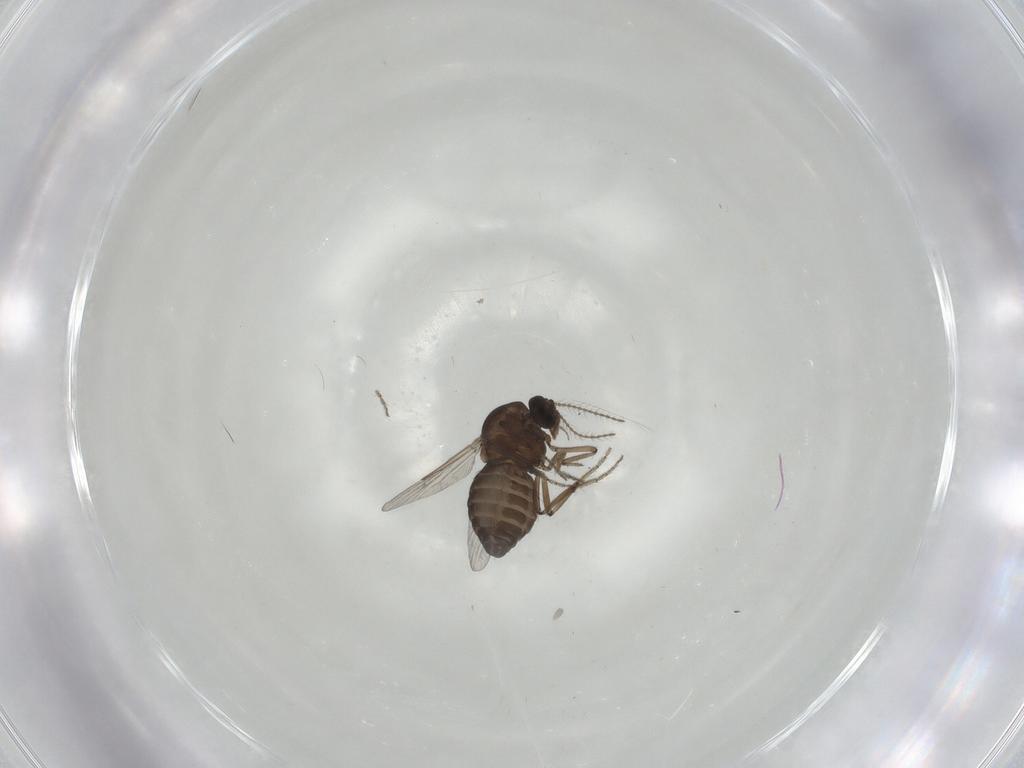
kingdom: Animalia
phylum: Arthropoda
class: Insecta
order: Diptera
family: Ceratopogonidae
